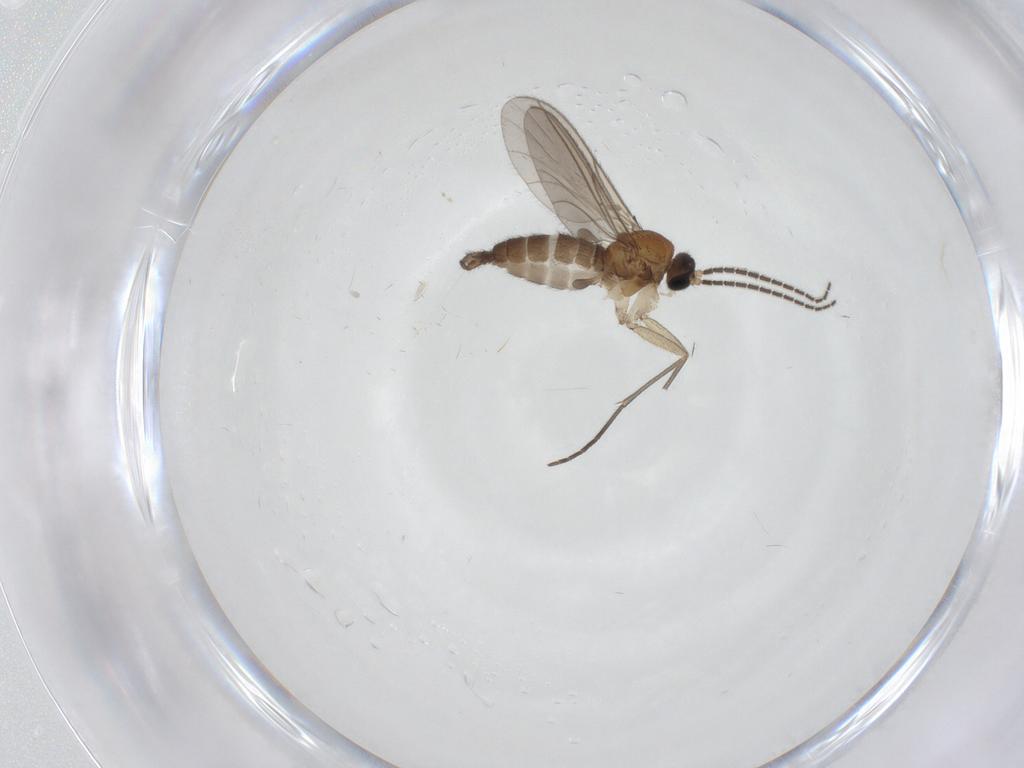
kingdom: Animalia
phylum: Arthropoda
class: Insecta
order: Diptera
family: Sciaridae
